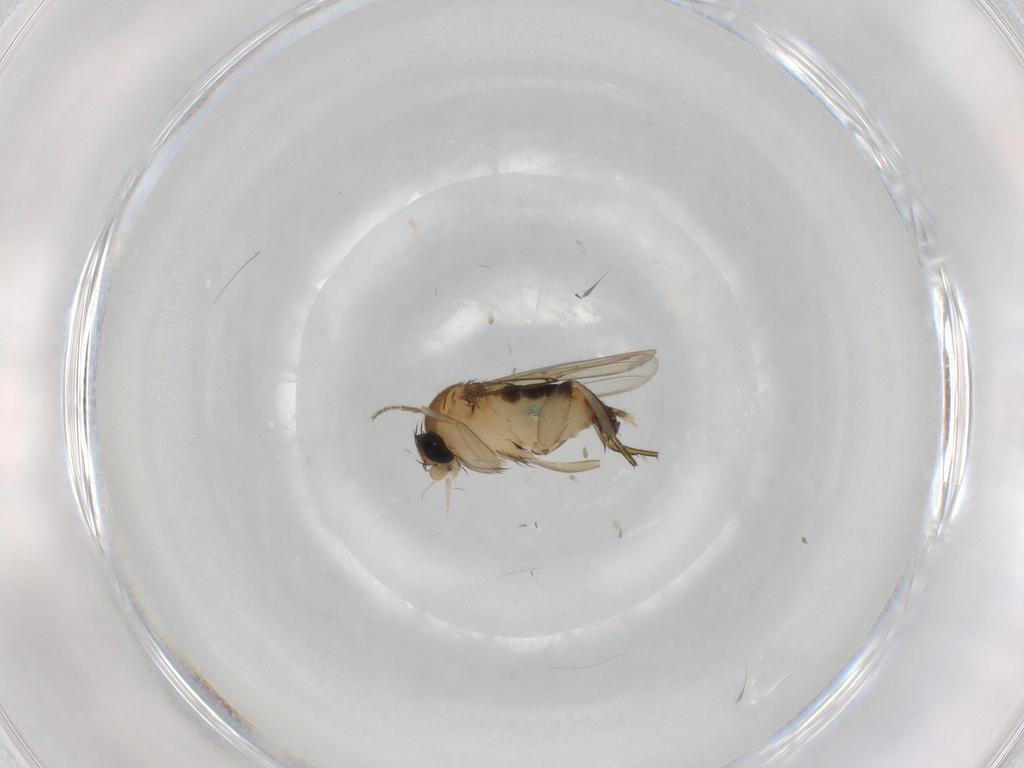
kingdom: Animalia
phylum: Arthropoda
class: Insecta
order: Diptera
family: Phoridae
